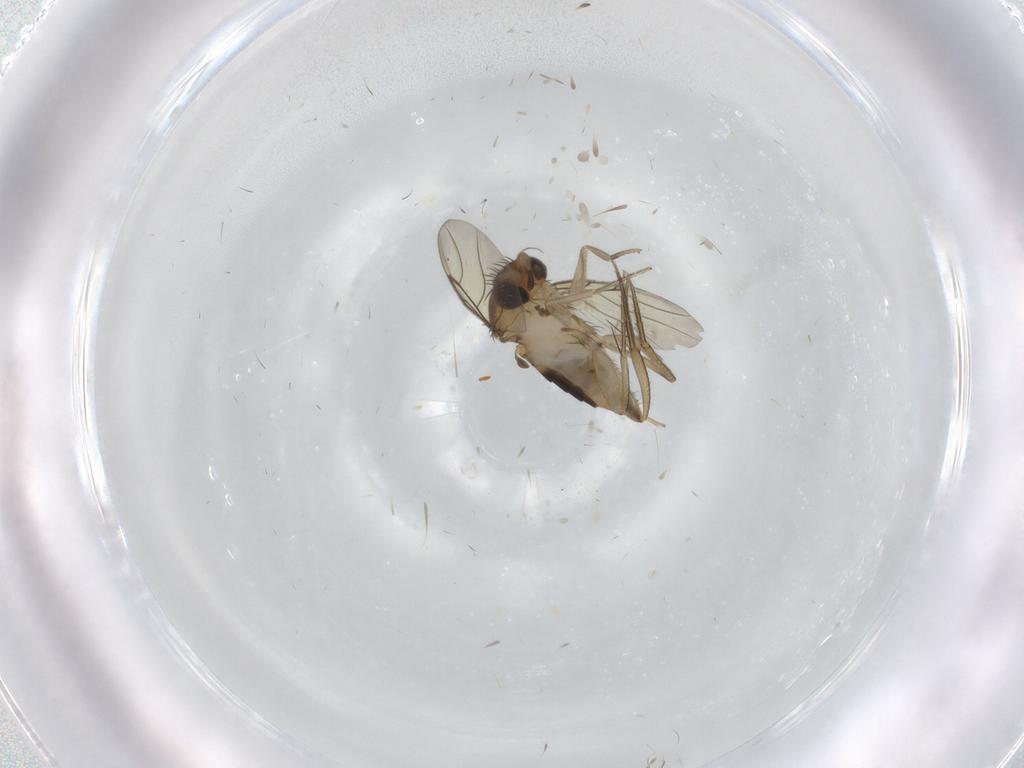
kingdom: Animalia
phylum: Arthropoda
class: Insecta
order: Diptera
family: Phoridae
